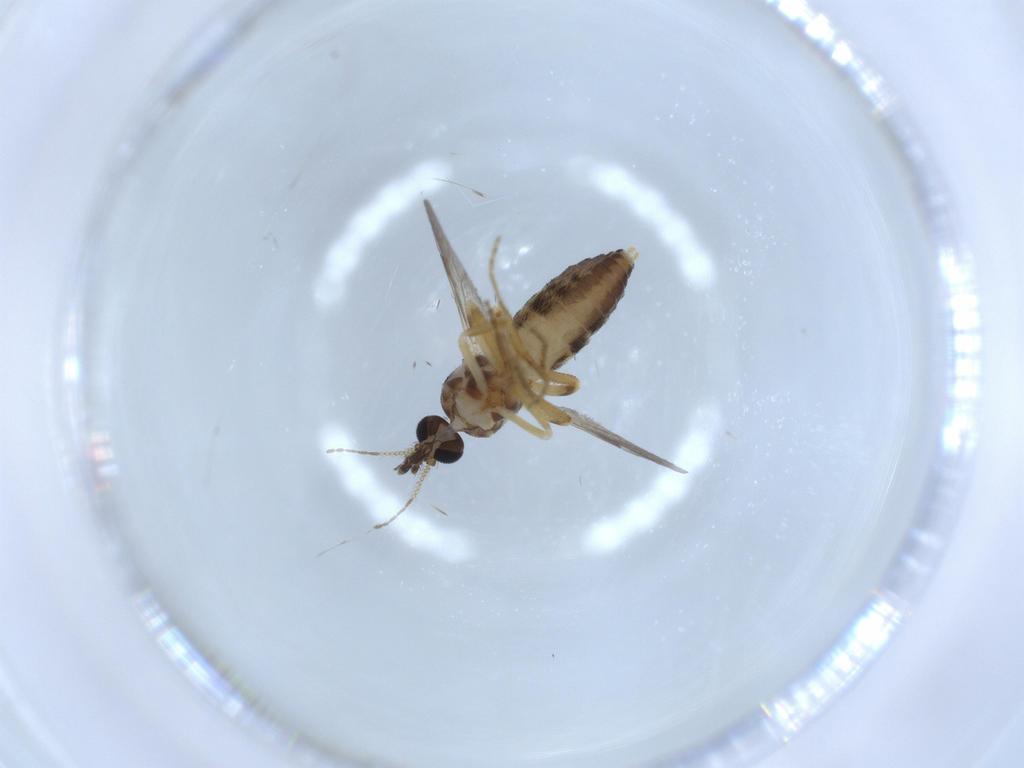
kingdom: Animalia
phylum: Arthropoda
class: Insecta
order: Diptera
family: Ceratopogonidae
